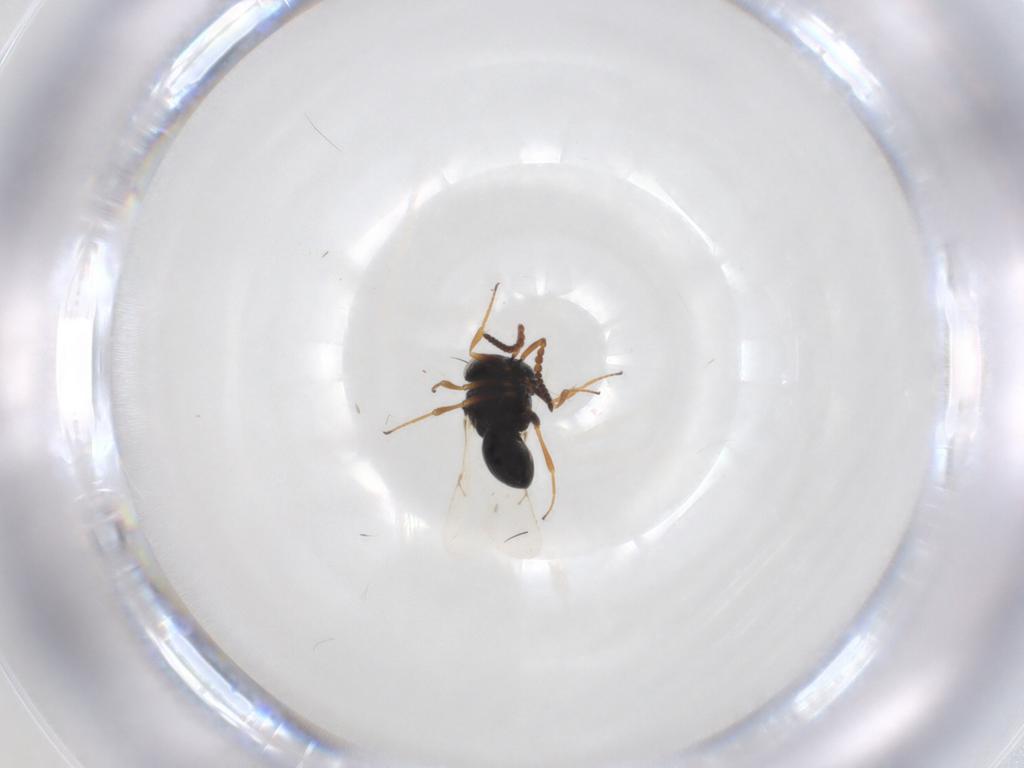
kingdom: Animalia
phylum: Arthropoda
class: Insecta
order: Hymenoptera
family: Scelionidae
